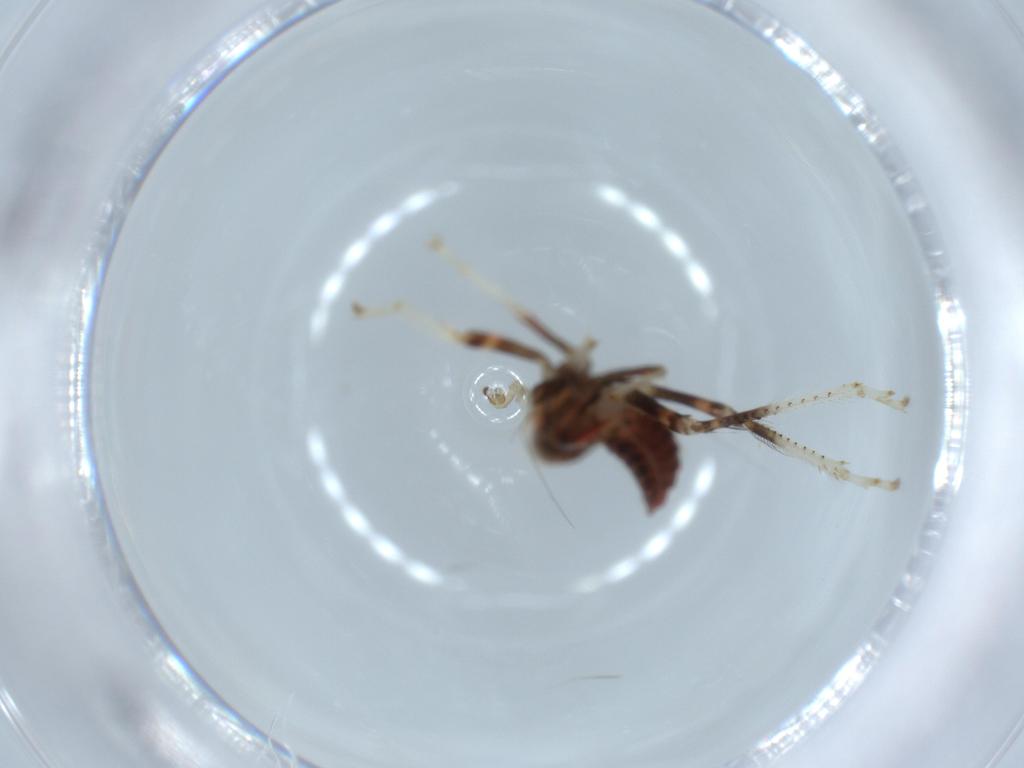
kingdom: Animalia
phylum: Arthropoda
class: Insecta
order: Hemiptera
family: Cicadellidae
